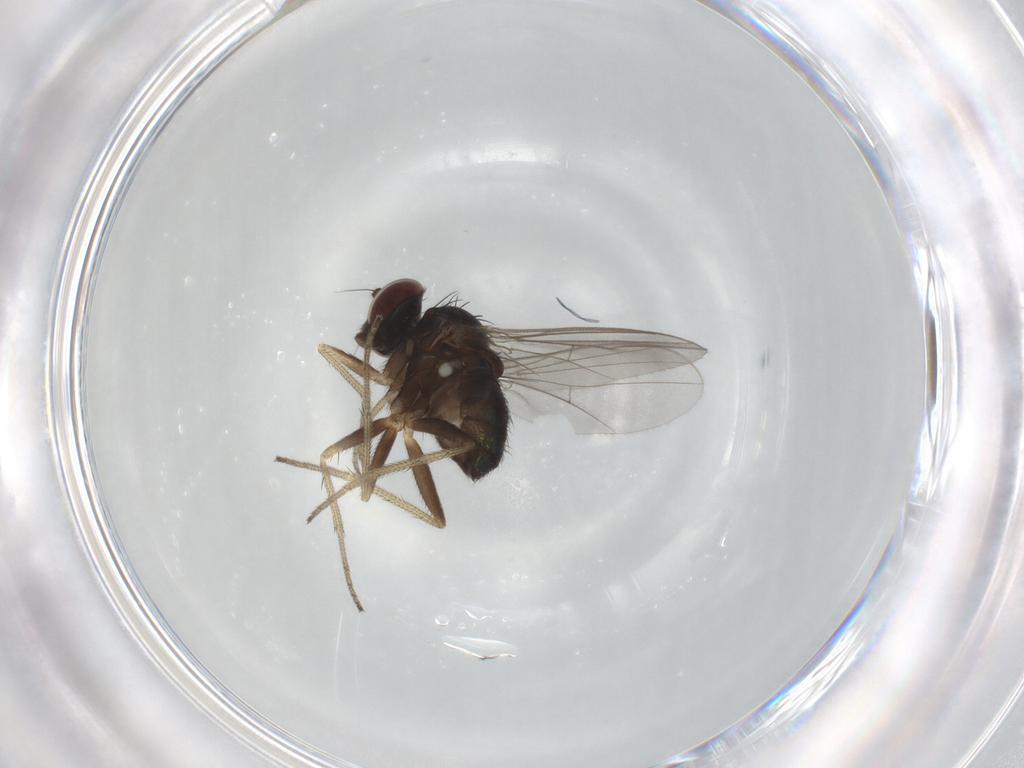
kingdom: Animalia
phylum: Arthropoda
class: Insecta
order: Diptera
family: Dolichopodidae
